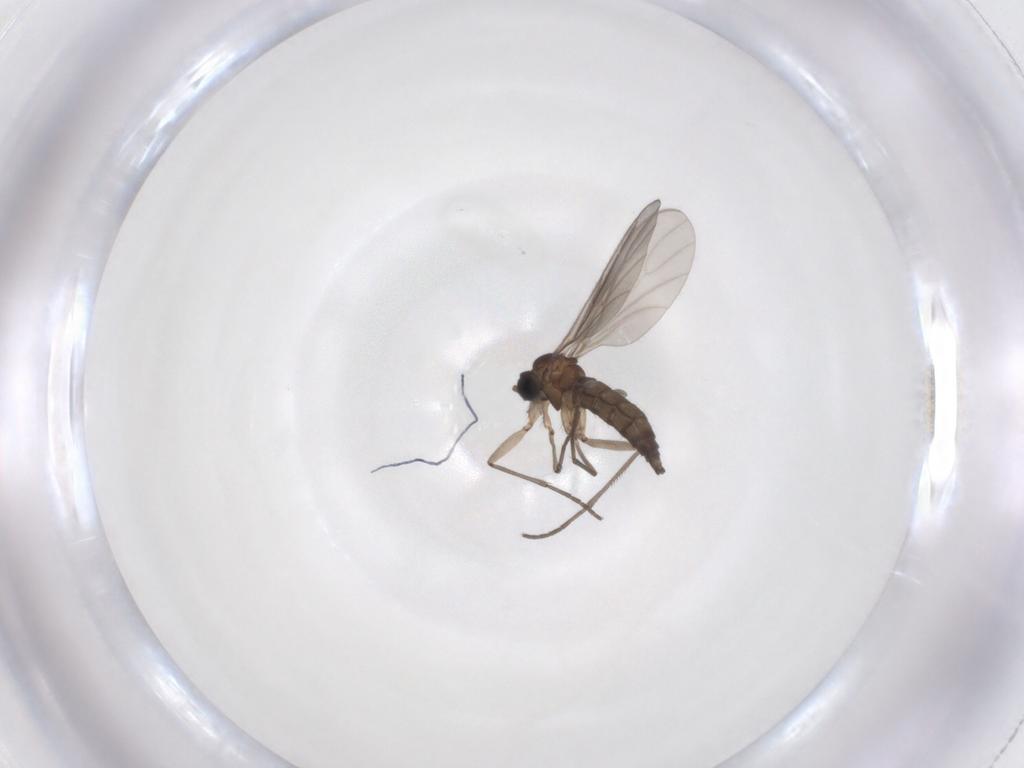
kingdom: Animalia
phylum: Arthropoda
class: Insecta
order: Diptera
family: Sciaridae
